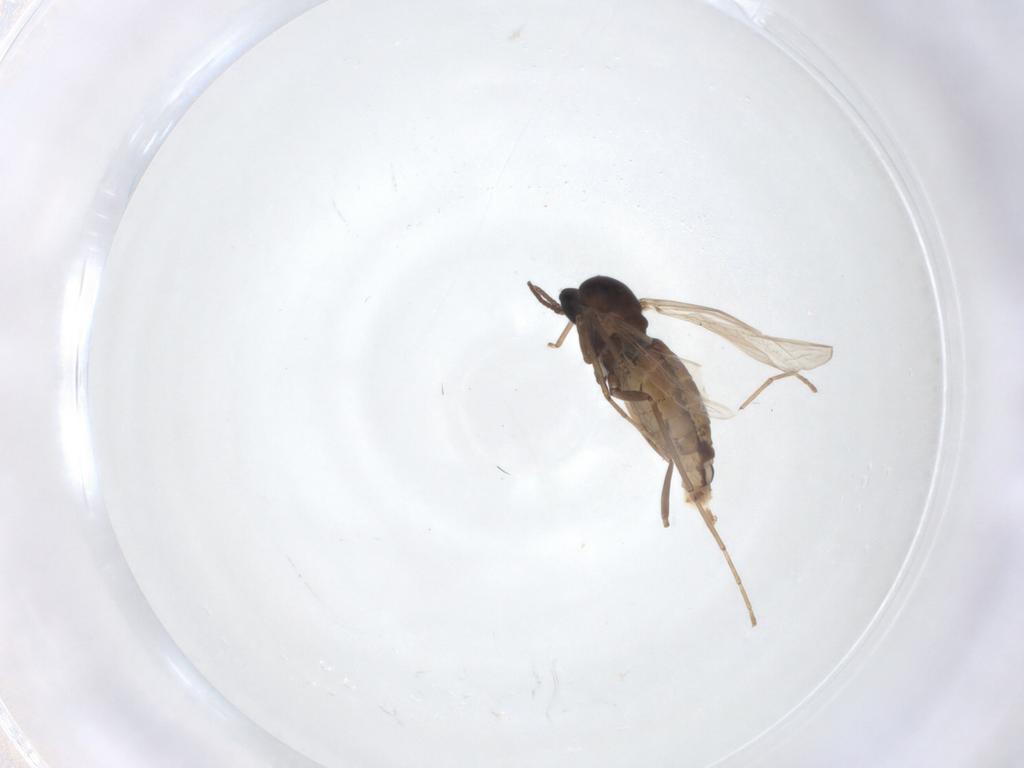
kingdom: Animalia
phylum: Arthropoda
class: Insecta
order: Diptera
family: Cecidomyiidae
